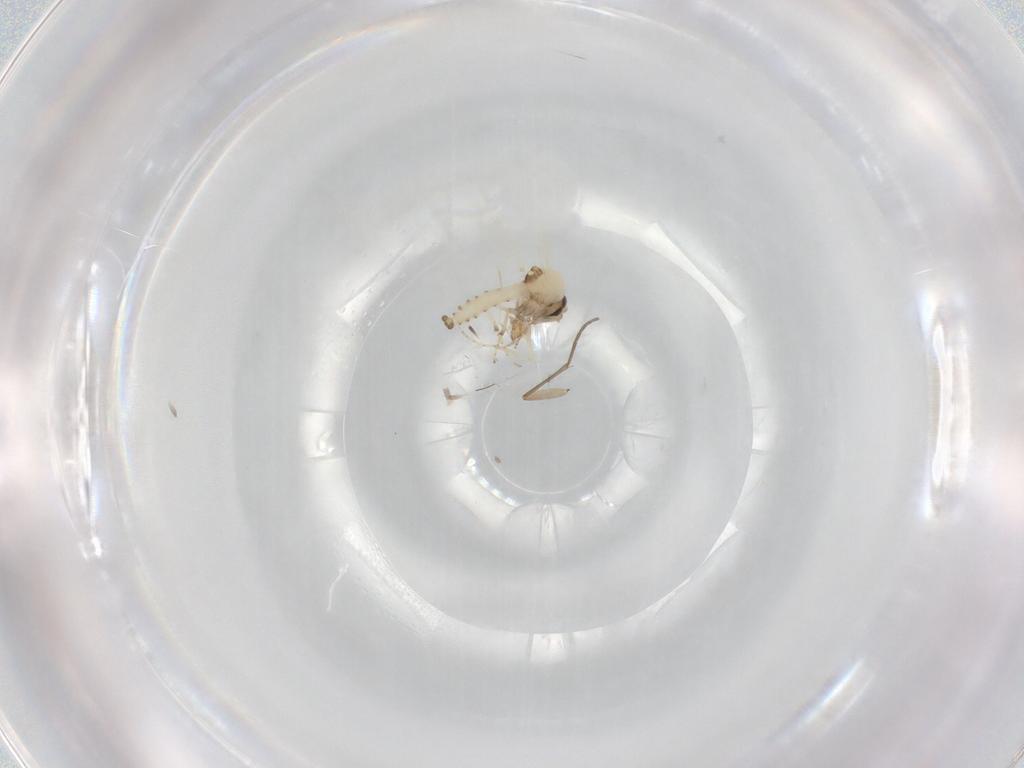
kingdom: Animalia
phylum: Arthropoda
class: Insecta
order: Diptera
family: Ceratopogonidae
